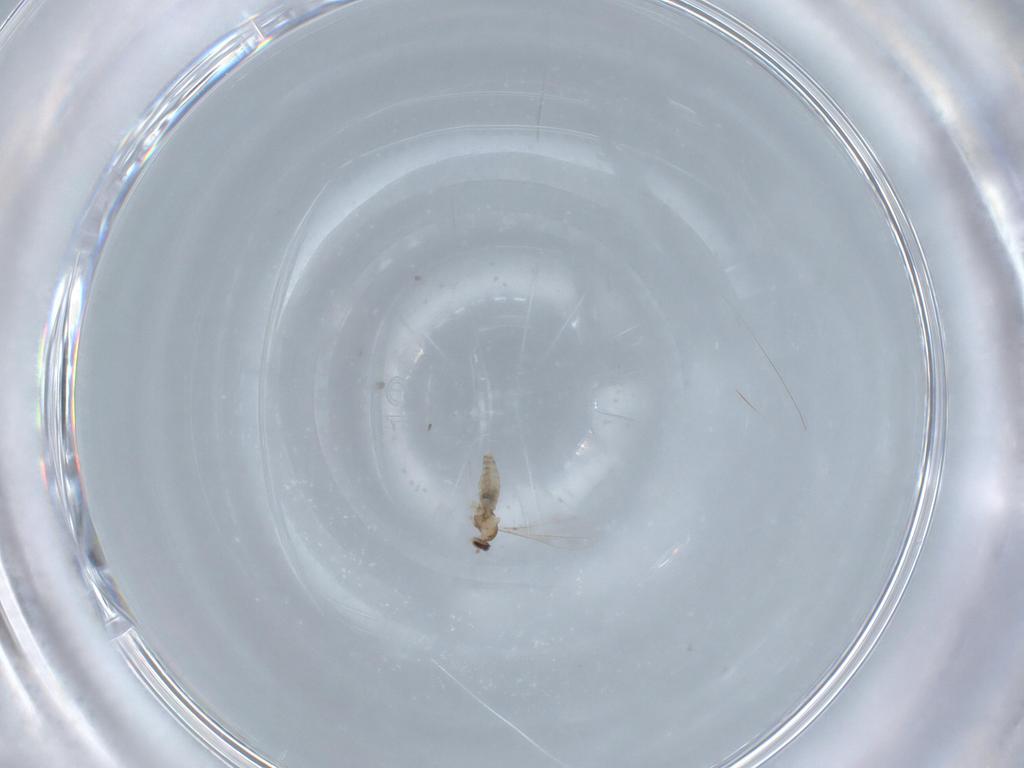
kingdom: Animalia
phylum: Arthropoda
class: Insecta
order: Diptera
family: Cecidomyiidae
